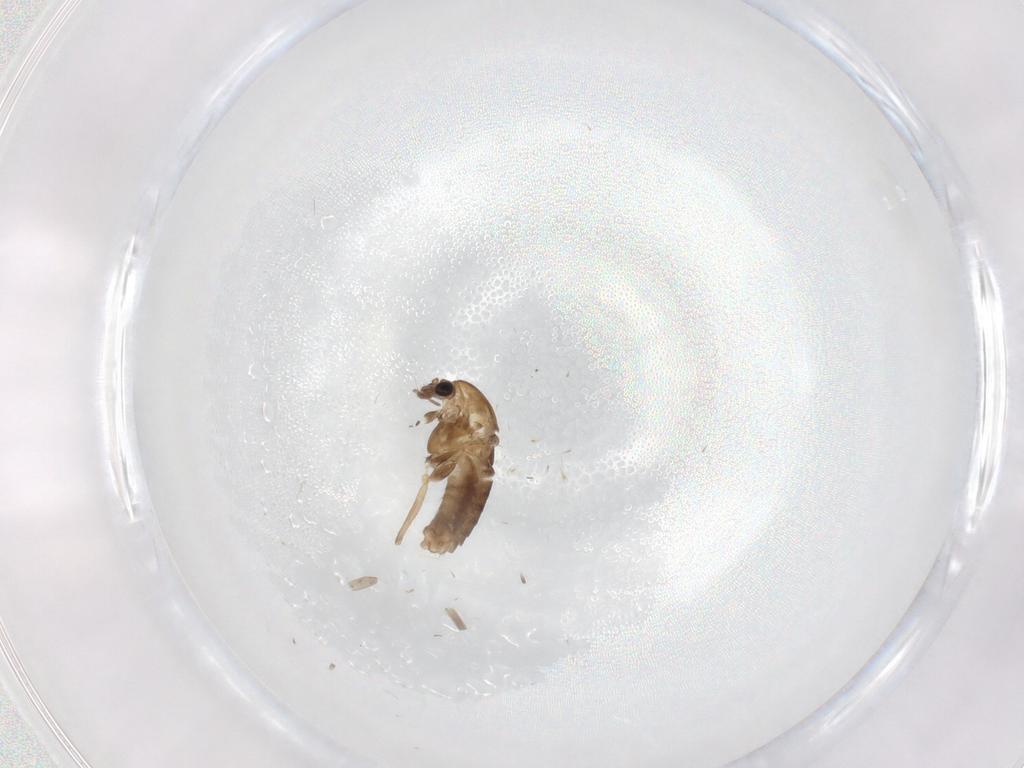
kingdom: Animalia
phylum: Arthropoda
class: Insecta
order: Diptera
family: Chironomidae
